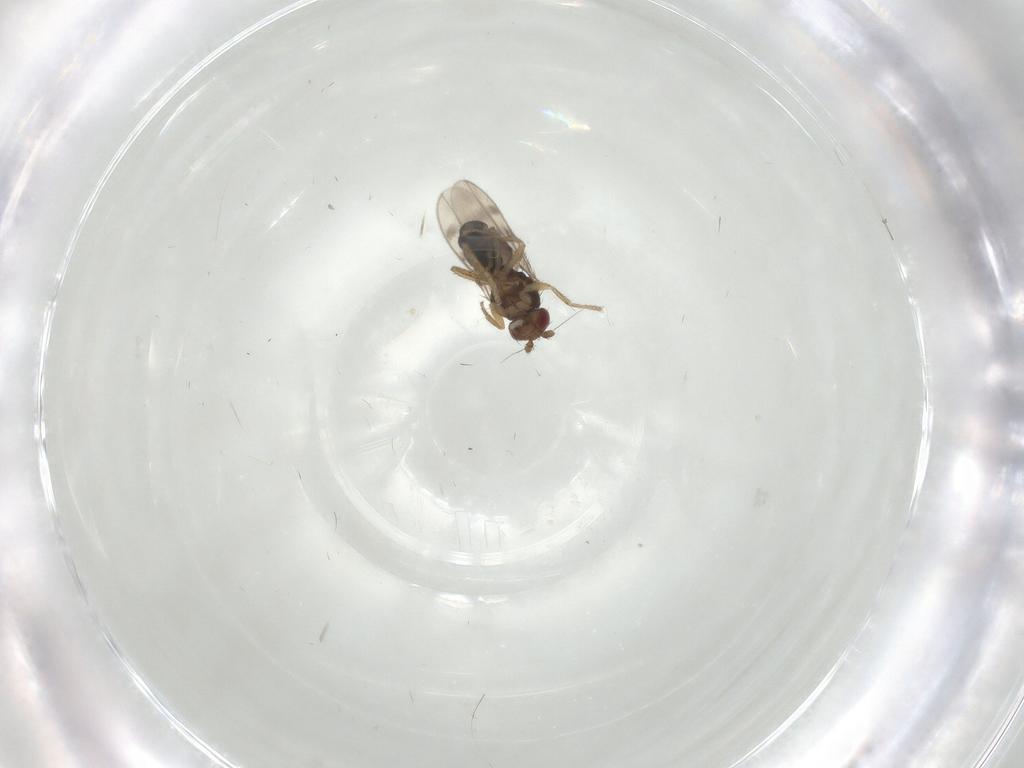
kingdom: Animalia
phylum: Arthropoda
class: Insecta
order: Diptera
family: Sphaeroceridae
